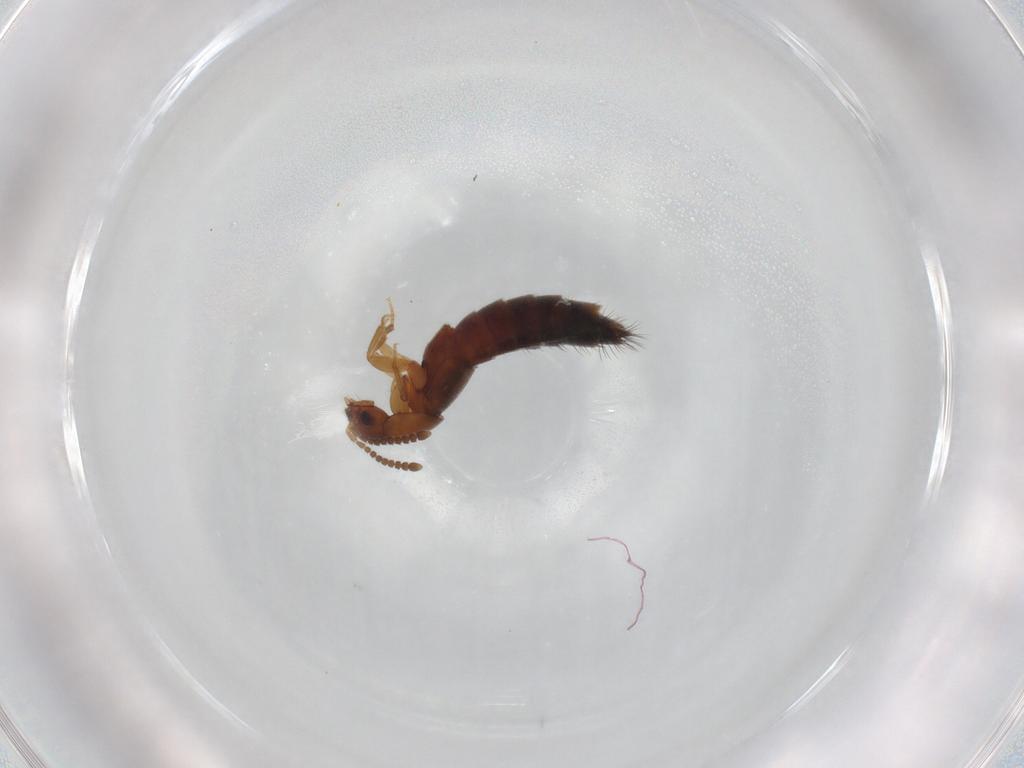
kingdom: Animalia
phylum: Arthropoda
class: Insecta
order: Coleoptera
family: Staphylinidae
